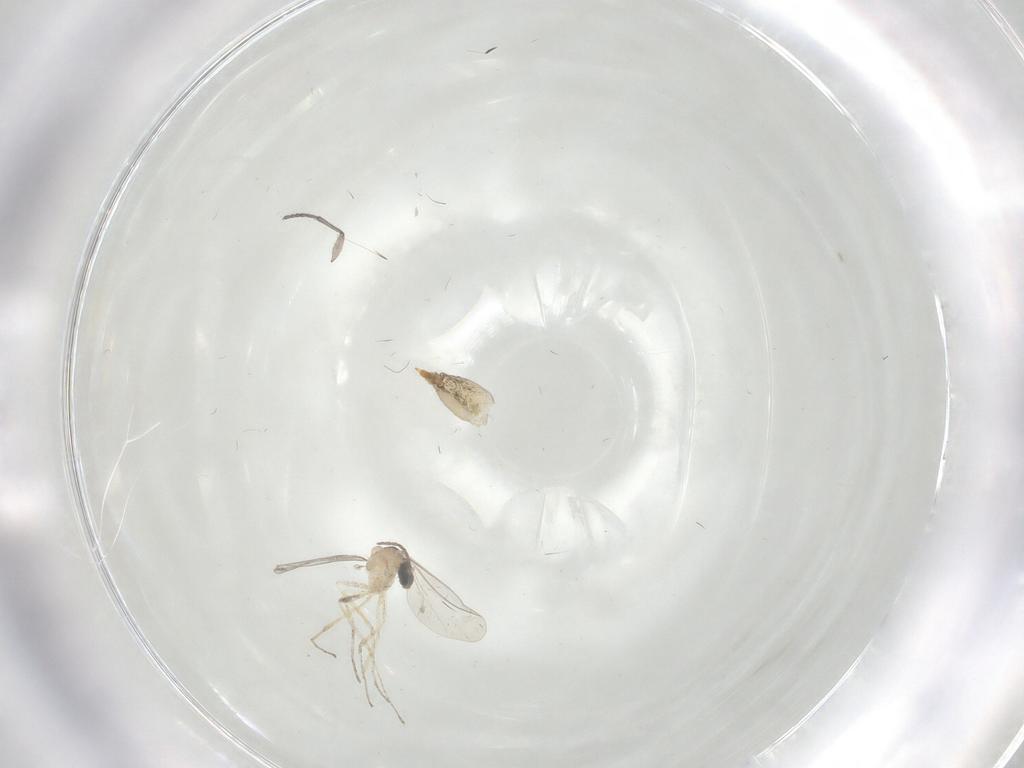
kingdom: Animalia
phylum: Arthropoda
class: Insecta
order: Diptera
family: Cecidomyiidae
